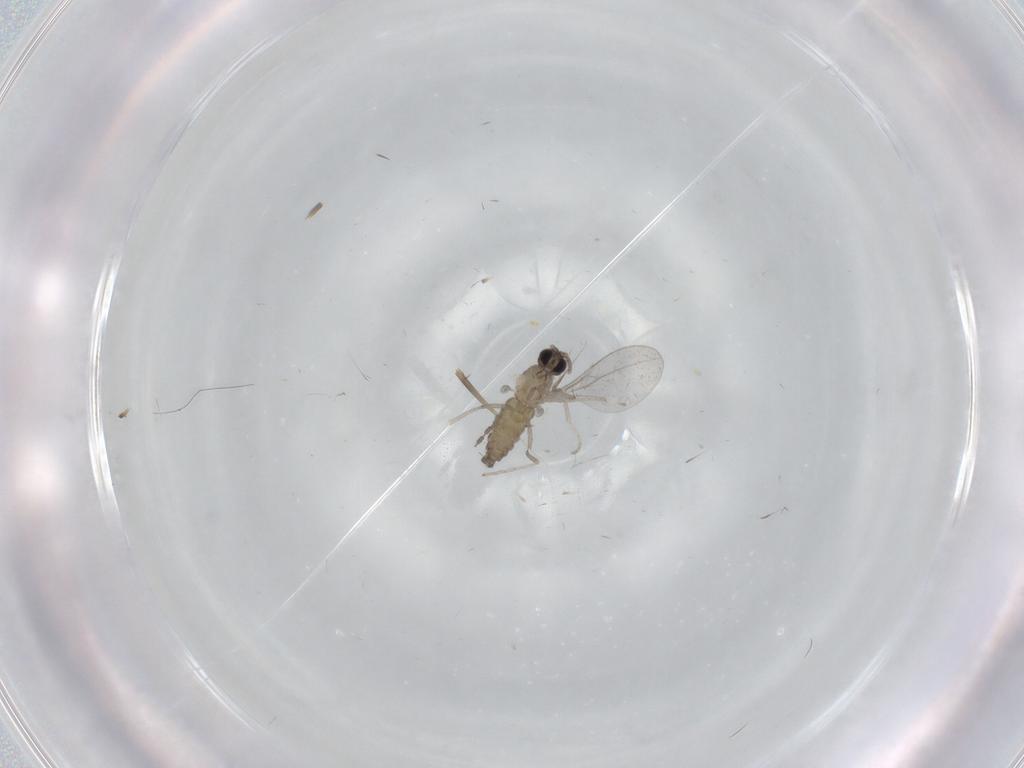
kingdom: Animalia
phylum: Arthropoda
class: Insecta
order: Diptera
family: Cecidomyiidae
